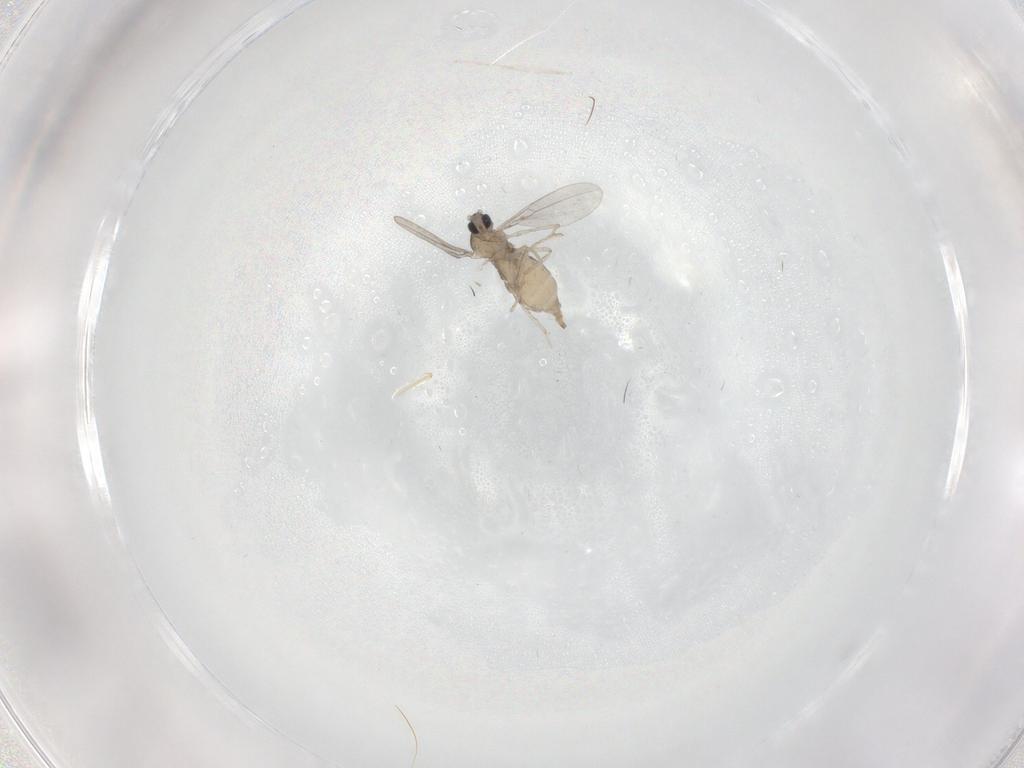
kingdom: Animalia
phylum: Arthropoda
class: Insecta
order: Diptera
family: Cecidomyiidae
